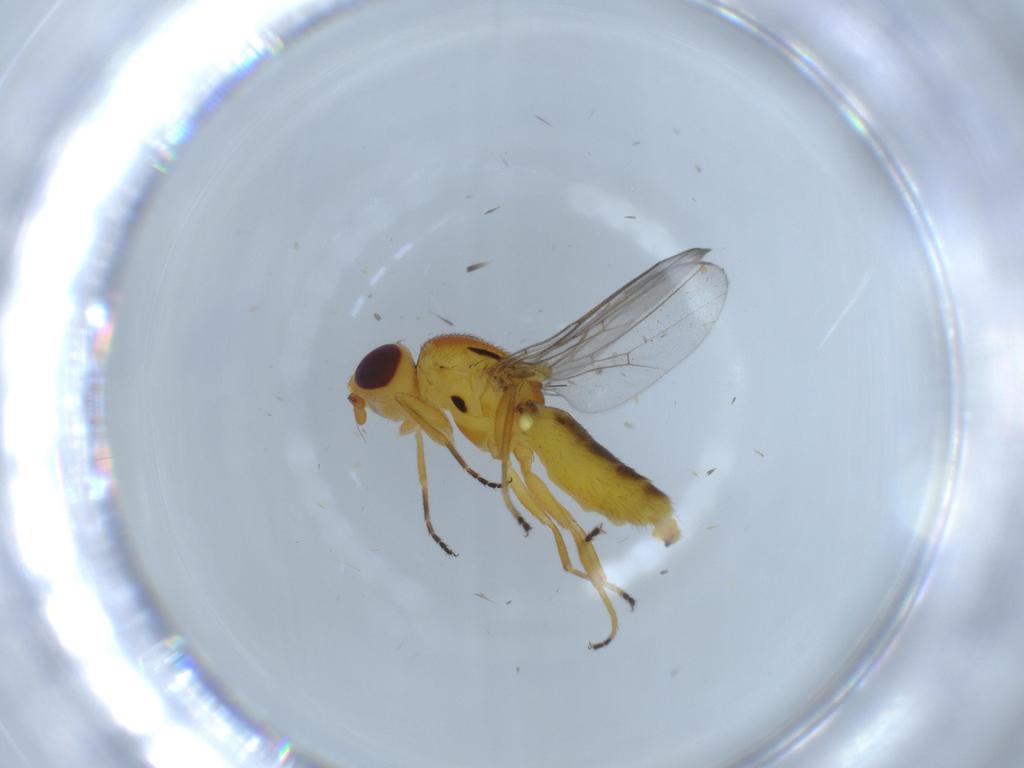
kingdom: Animalia
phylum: Arthropoda
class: Insecta
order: Diptera
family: Chloropidae
